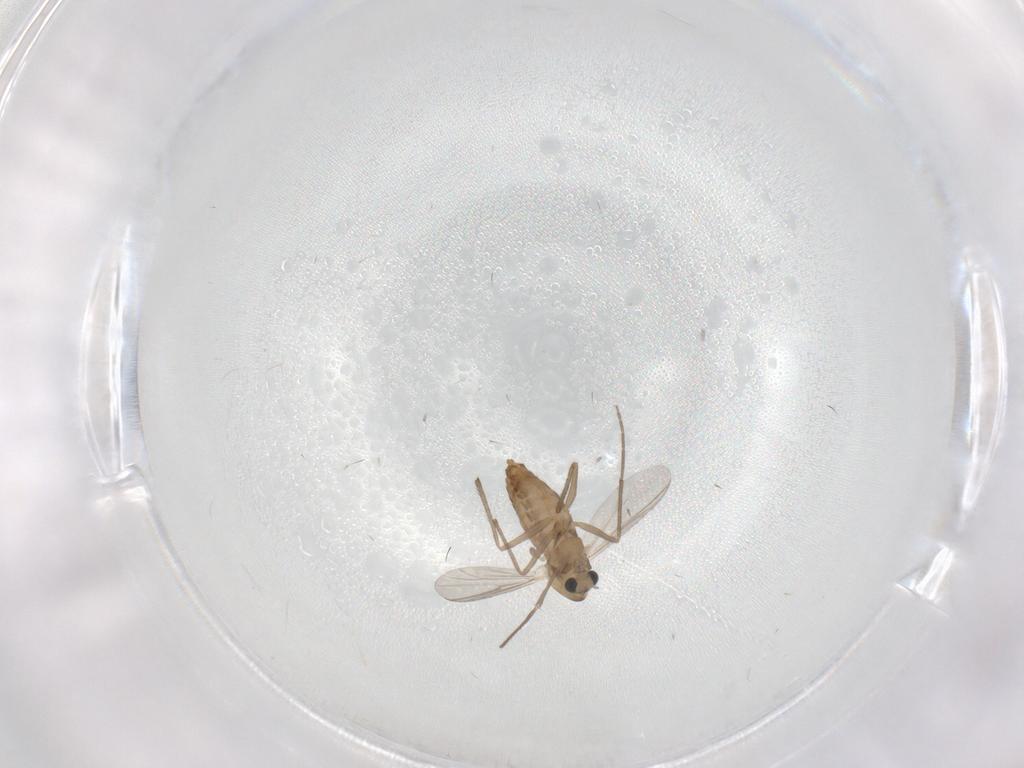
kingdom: Animalia
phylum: Arthropoda
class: Insecta
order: Diptera
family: Chironomidae
